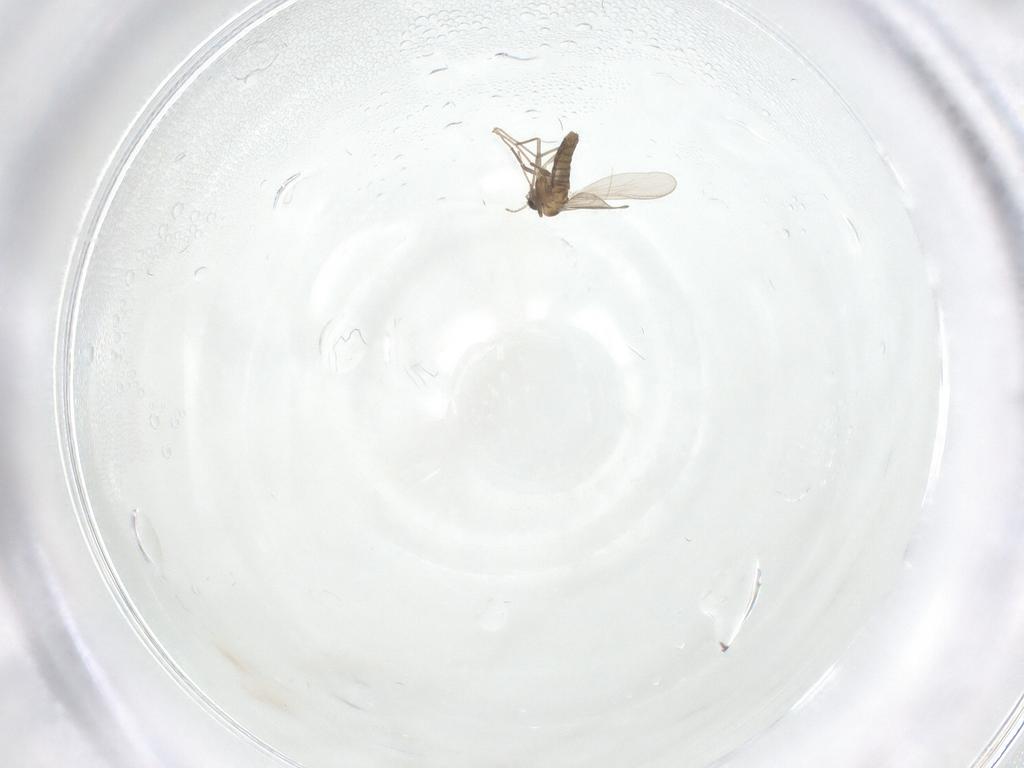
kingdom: Animalia
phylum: Arthropoda
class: Insecta
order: Diptera
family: Chironomidae
